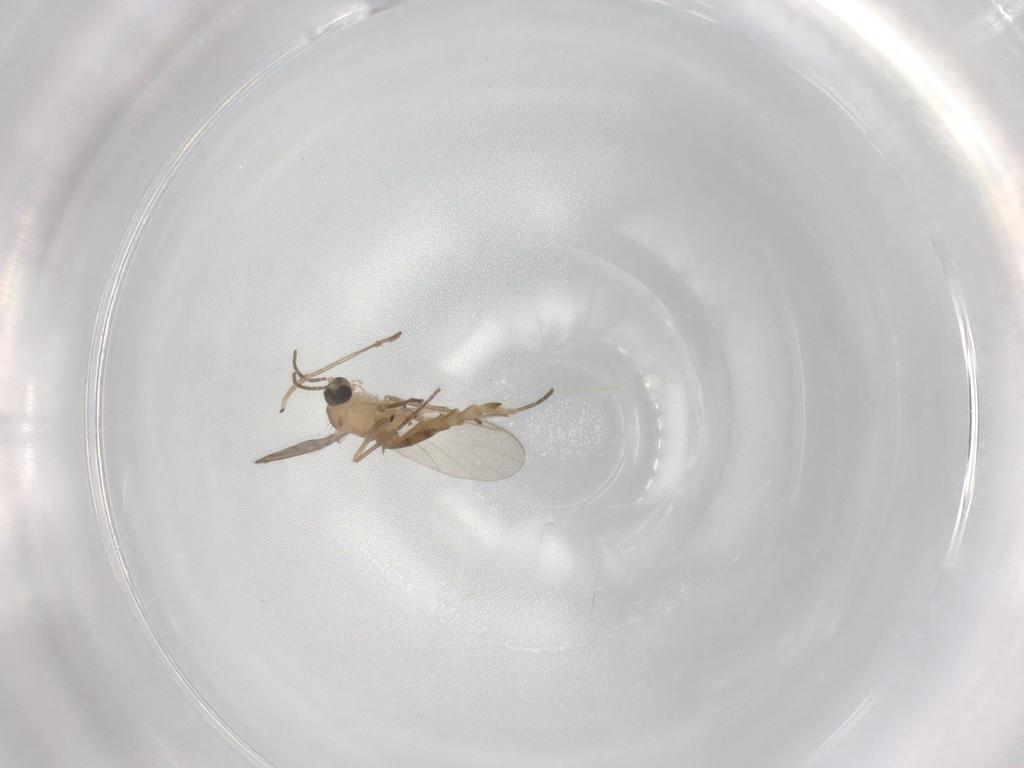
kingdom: Animalia
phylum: Arthropoda
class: Insecta
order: Diptera
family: Sciaridae
